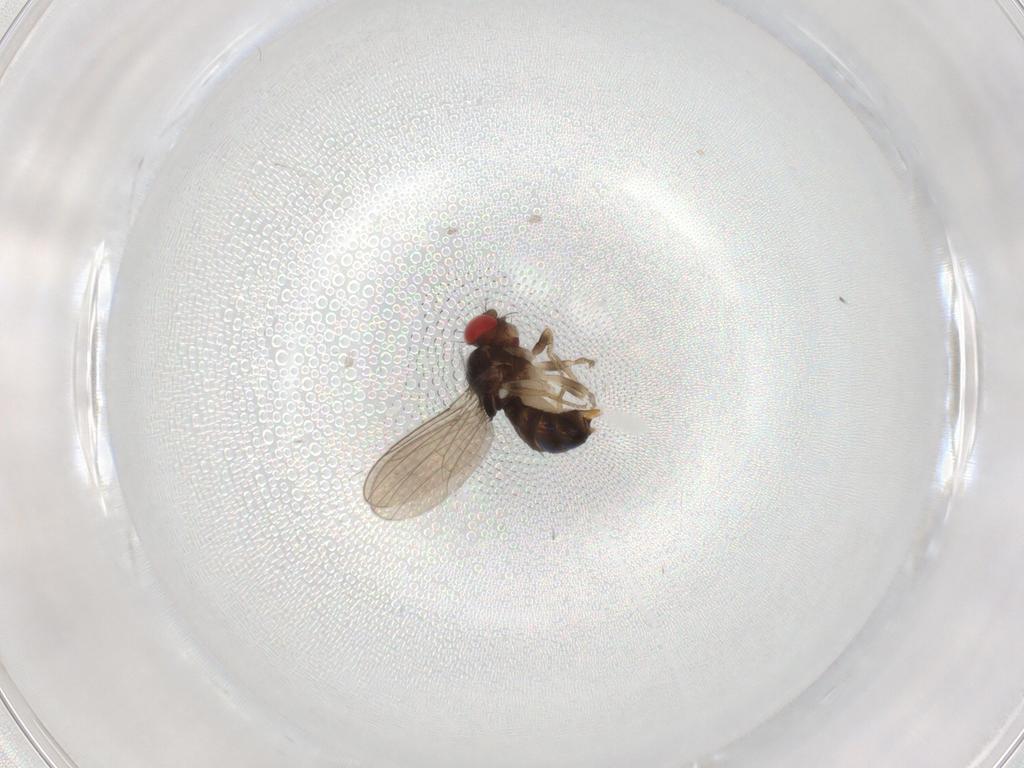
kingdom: Animalia
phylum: Arthropoda
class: Insecta
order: Diptera
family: Drosophilidae
